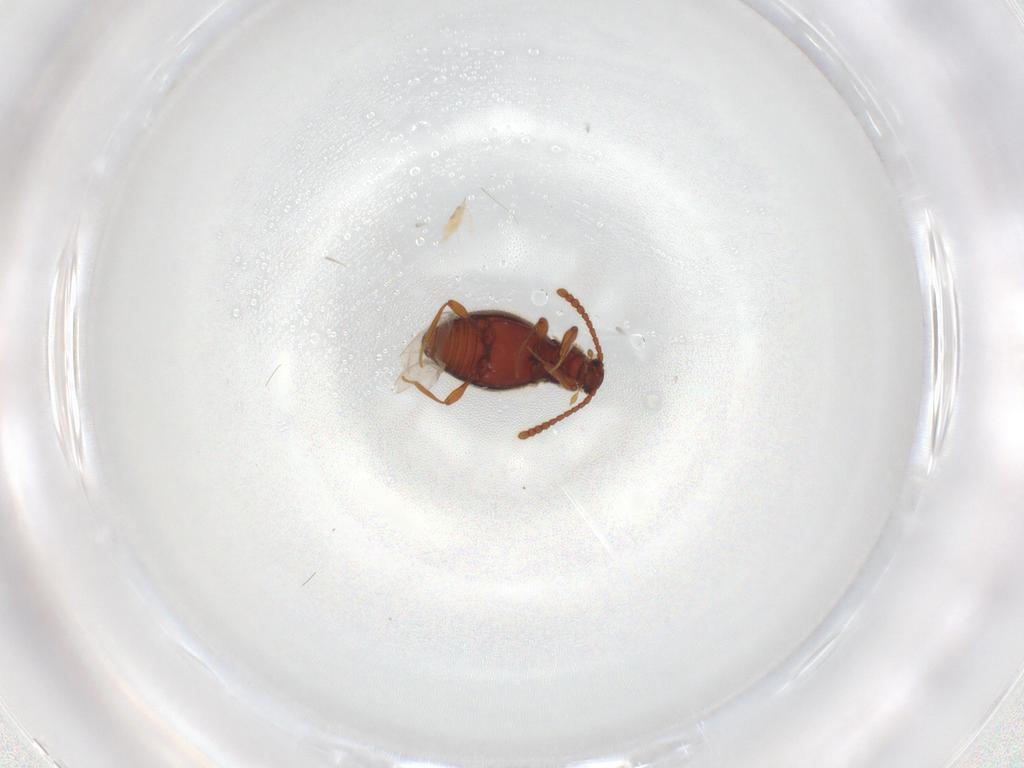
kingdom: Animalia
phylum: Arthropoda
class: Insecta
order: Coleoptera
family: Staphylinidae
